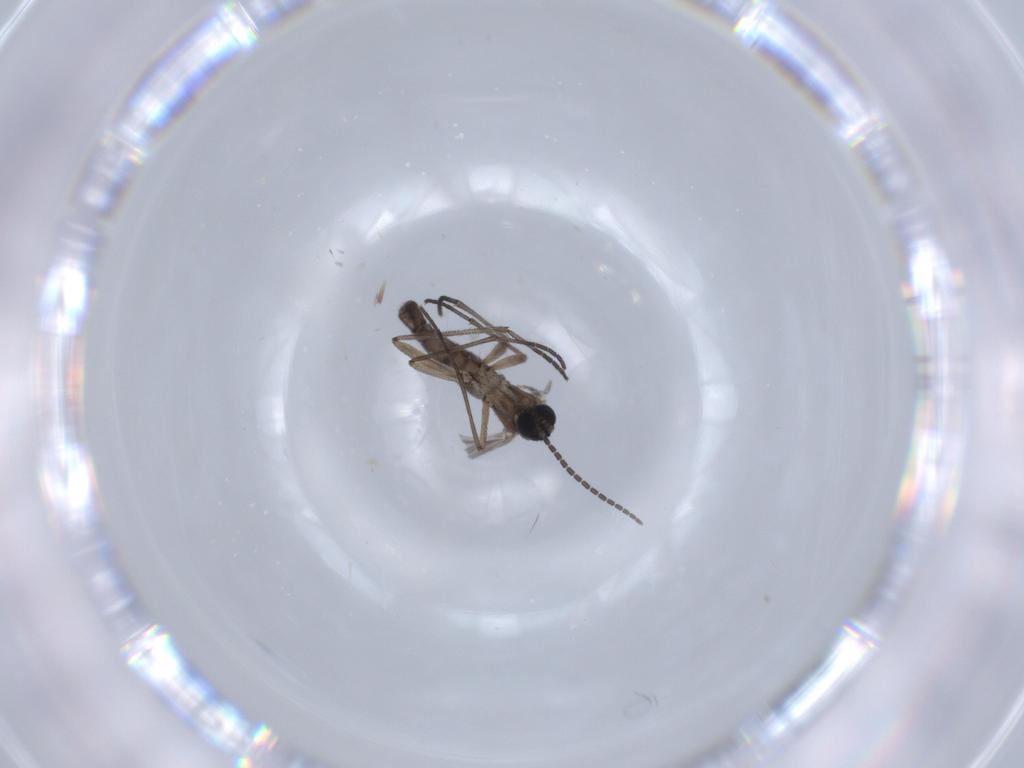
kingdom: Animalia
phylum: Arthropoda
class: Insecta
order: Diptera
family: Sciaridae
